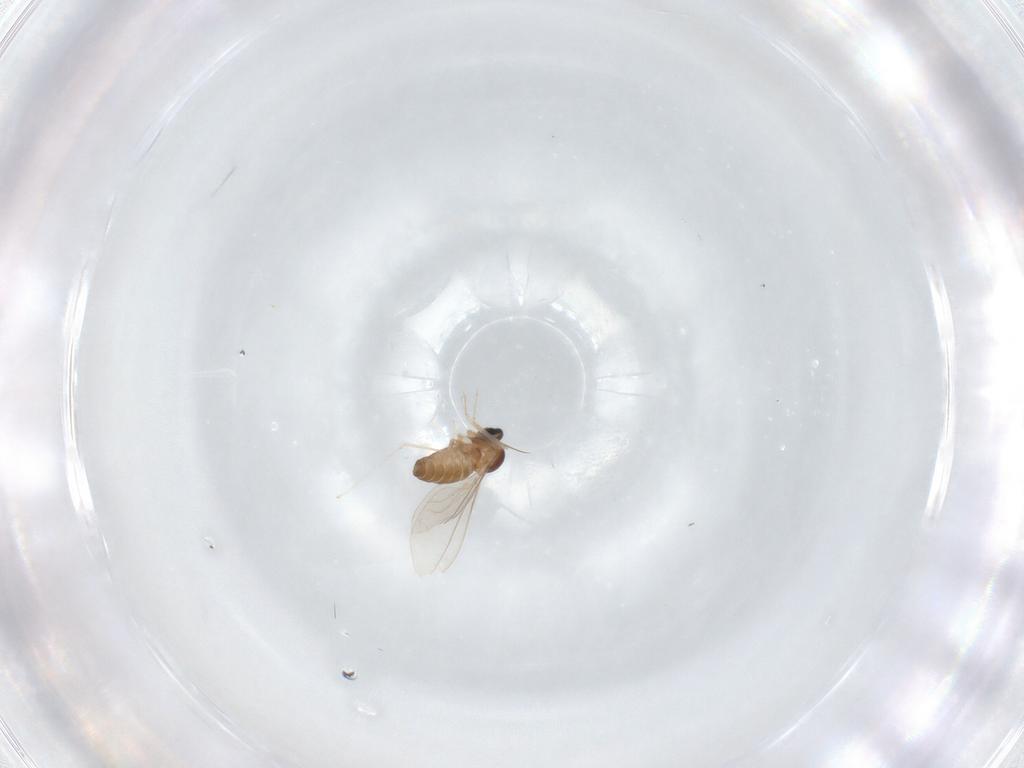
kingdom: Animalia
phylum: Arthropoda
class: Insecta
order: Diptera
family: Cecidomyiidae
